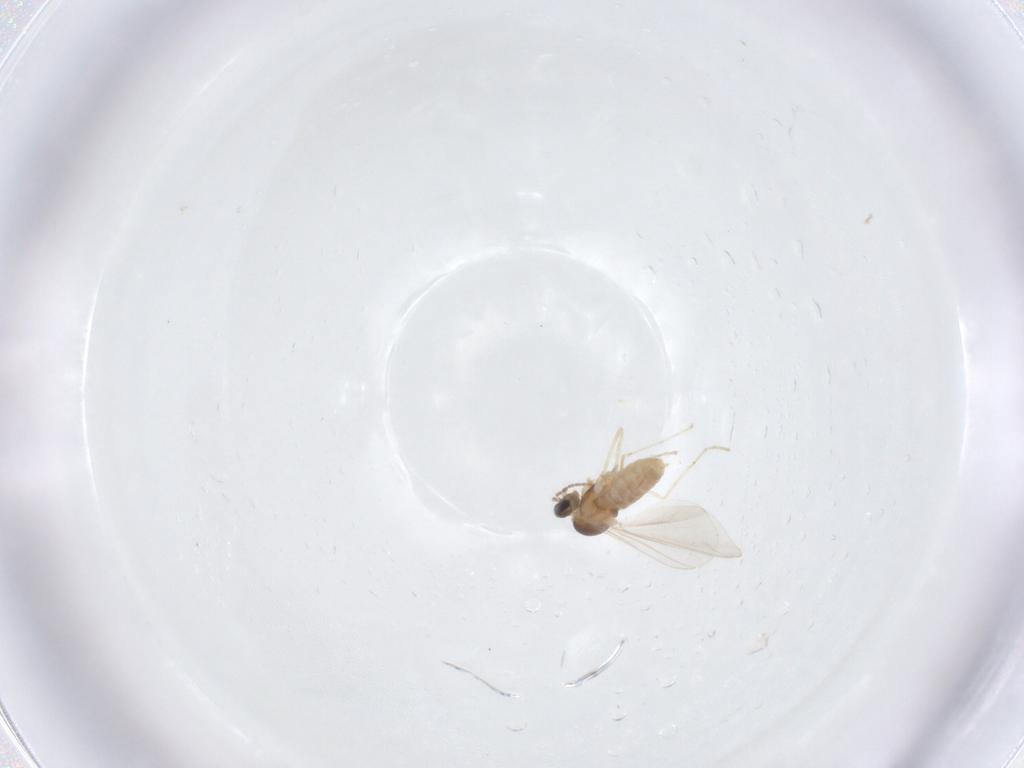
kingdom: Animalia
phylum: Arthropoda
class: Insecta
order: Diptera
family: Cecidomyiidae
